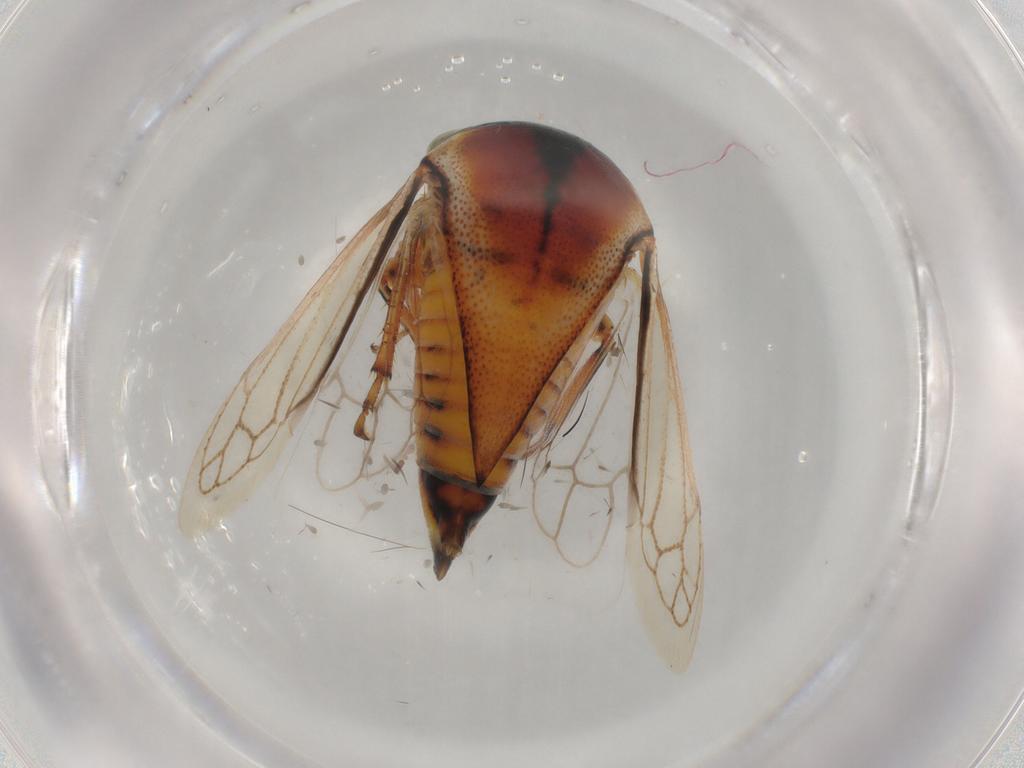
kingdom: Animalia
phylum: Arthropoda
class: Insecta
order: Hemiptera
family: Membracidae
